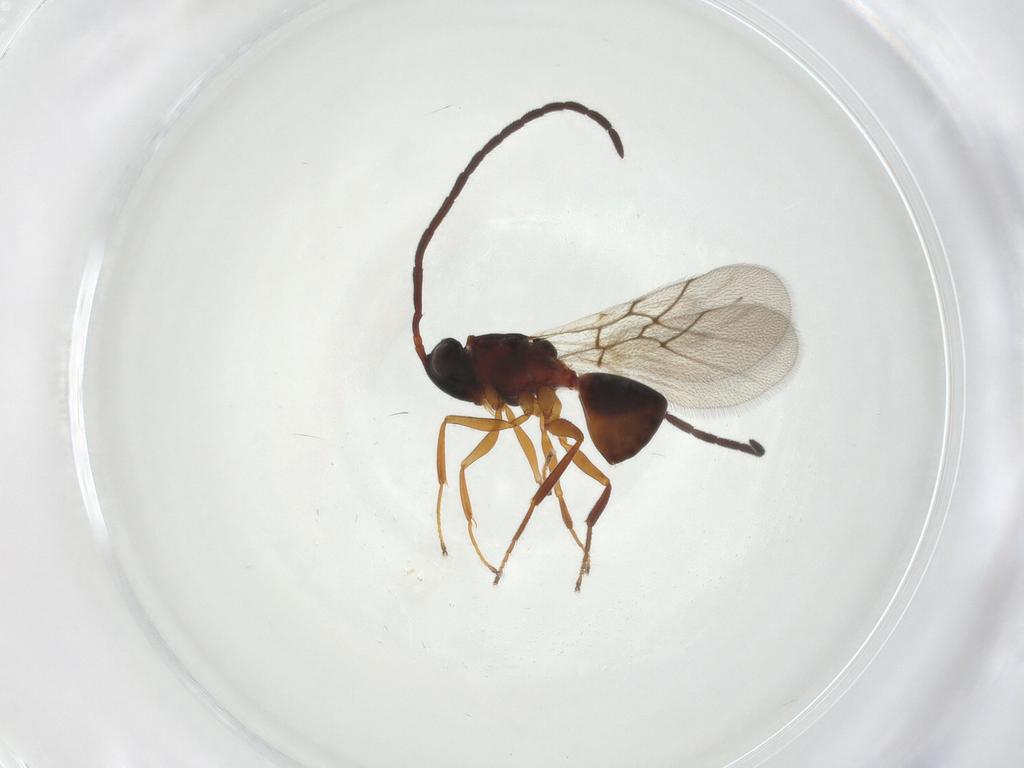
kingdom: Animalia
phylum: Arthropoda
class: Insecta
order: Hymenoptera
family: Figitidae
